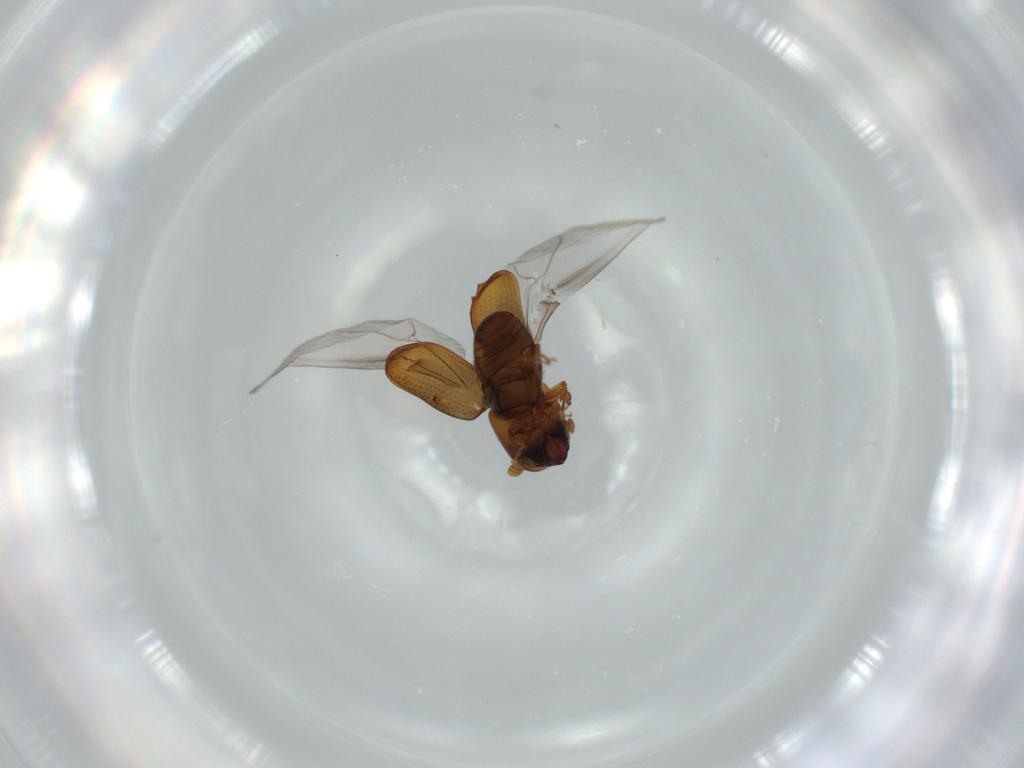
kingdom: Animalia
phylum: Arthropoda
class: Insecta
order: Coleoptera
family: Curculionidae
